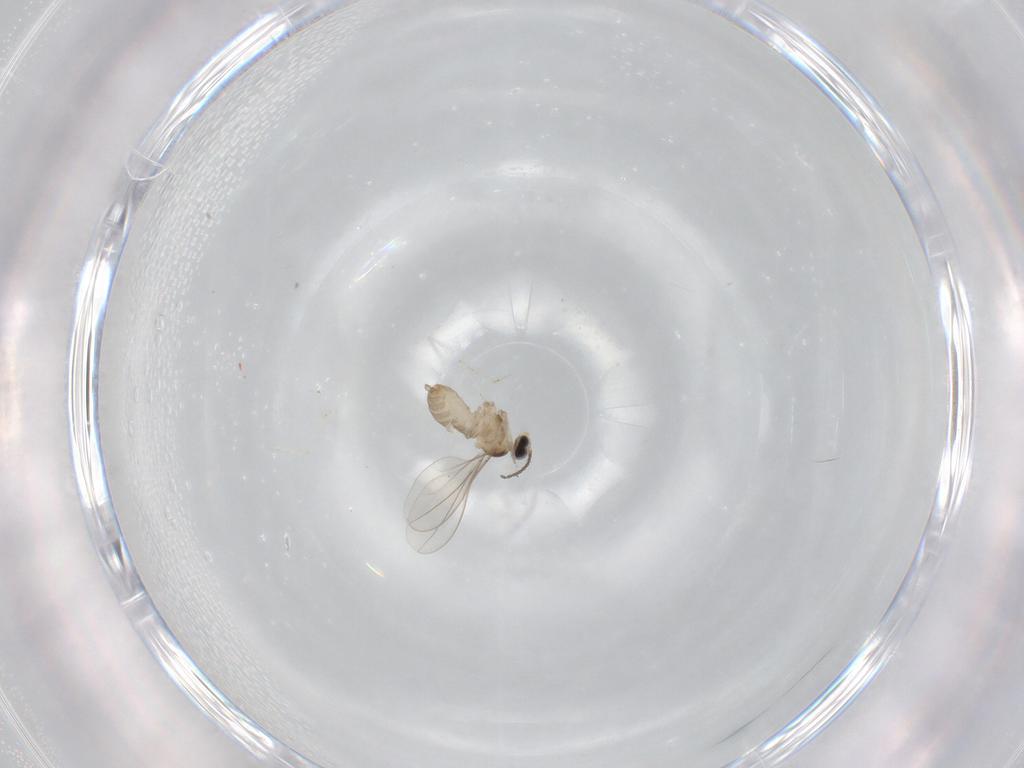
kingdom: Animalia
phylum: Arthropoda
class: Insecta
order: Diptera
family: Cecidomyiidae
